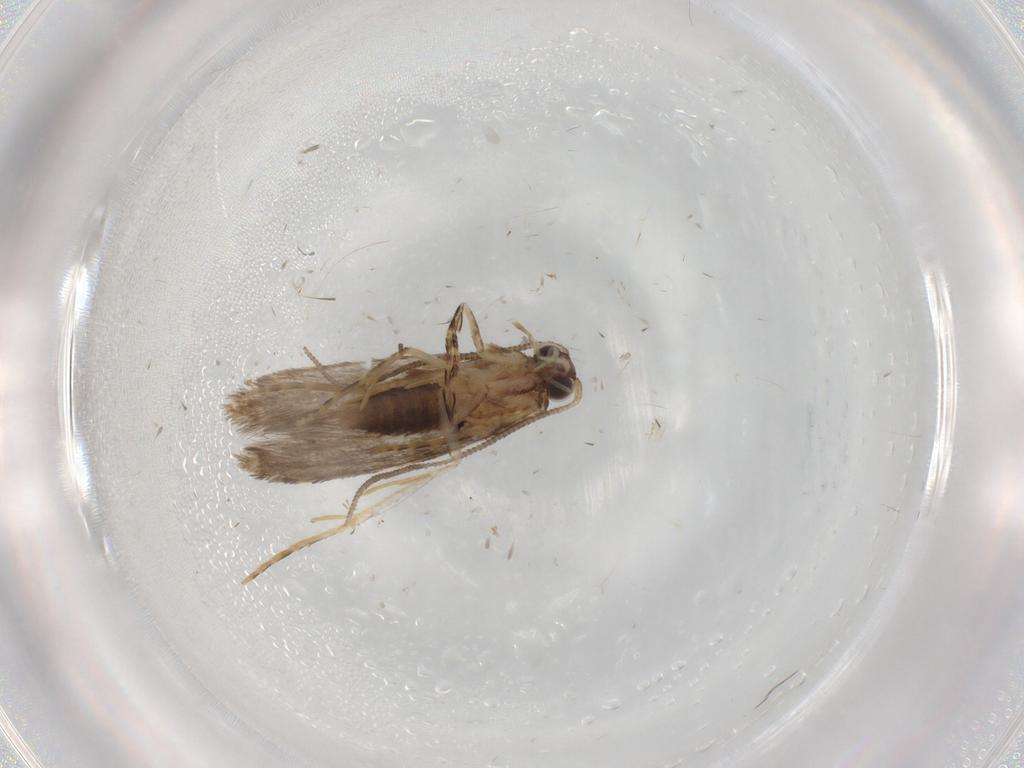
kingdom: Animalia
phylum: Arthropoda
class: Insecta
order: Lepidoptera
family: Tineidae
